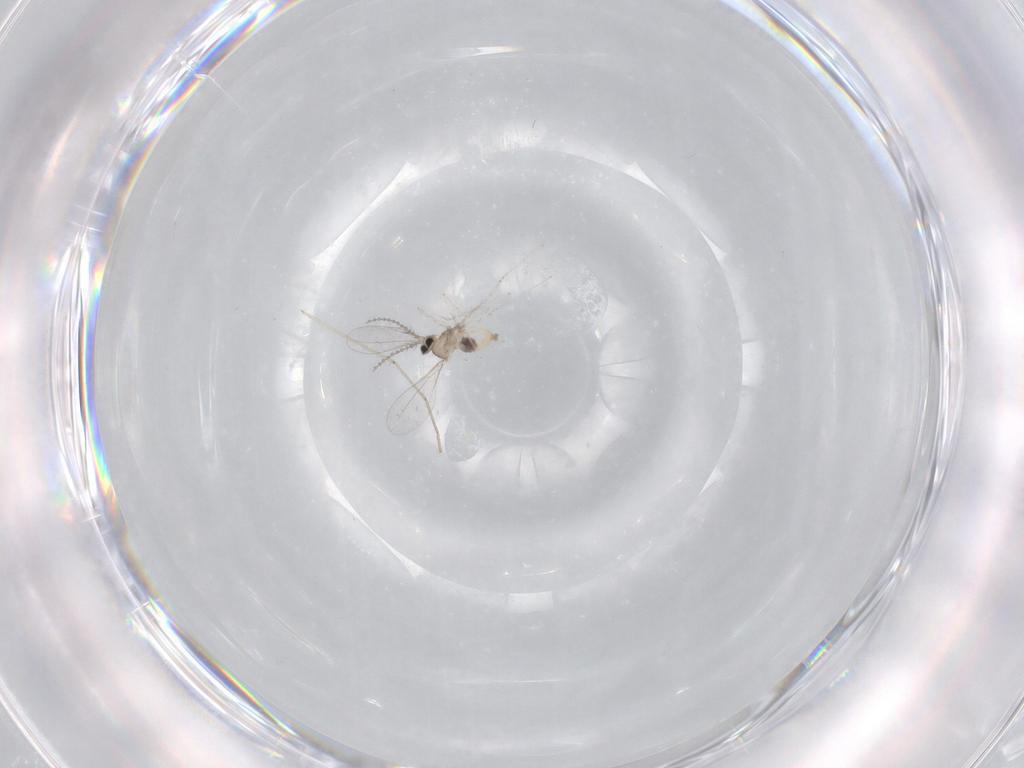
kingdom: Animalia
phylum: Arthropoda
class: Insecta
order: Diptera
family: Cecidomyiidae
